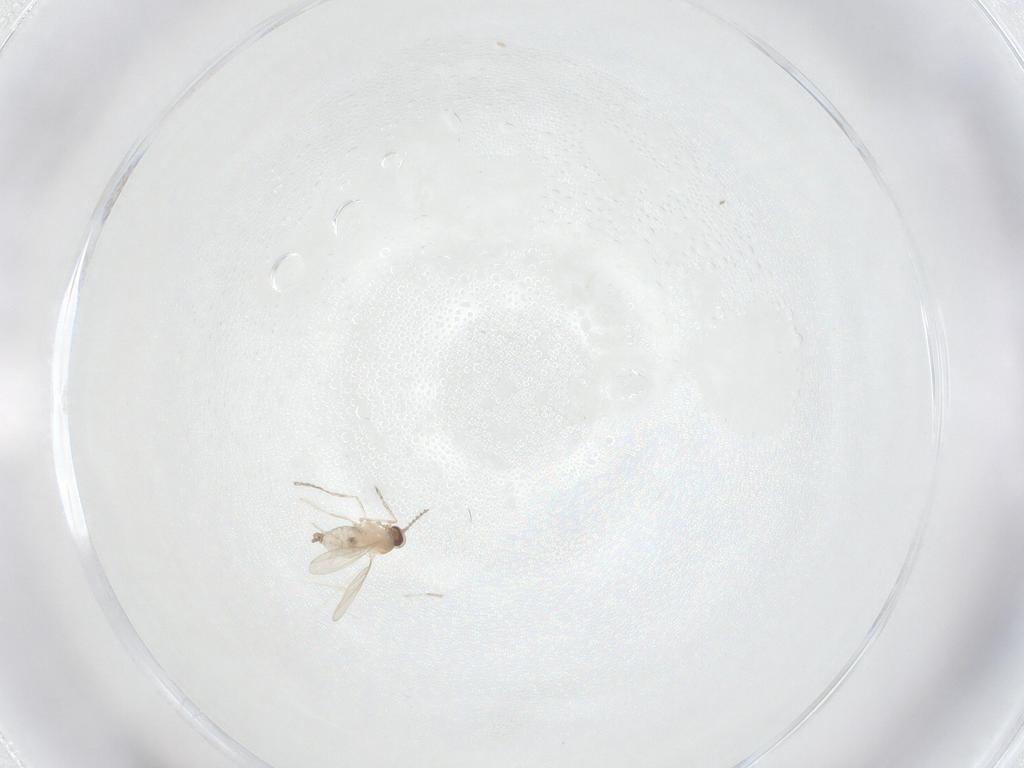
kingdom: Animalia
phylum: Arthropoda
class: Insecta
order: Diptera
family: Cecidomyiidae
